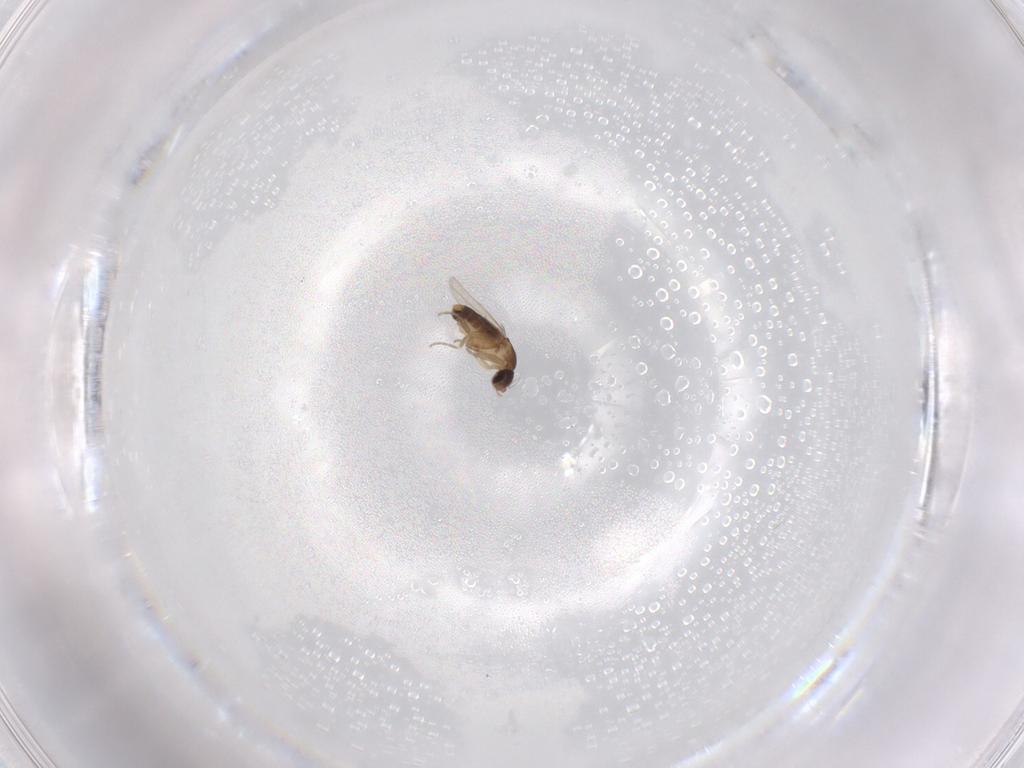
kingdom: Animalia
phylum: Arthropoda
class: Insecta
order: Diptera
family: Phoridae
